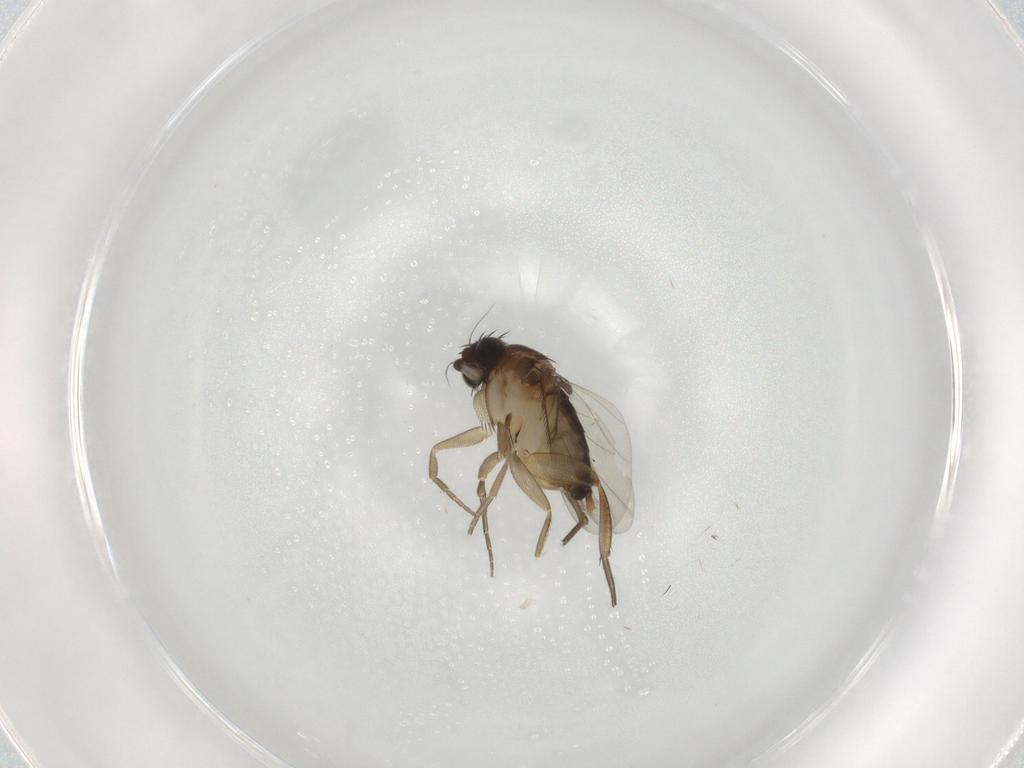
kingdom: Animalia
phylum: Arthropoda
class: Insecta
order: Diptera
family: Phoridae
